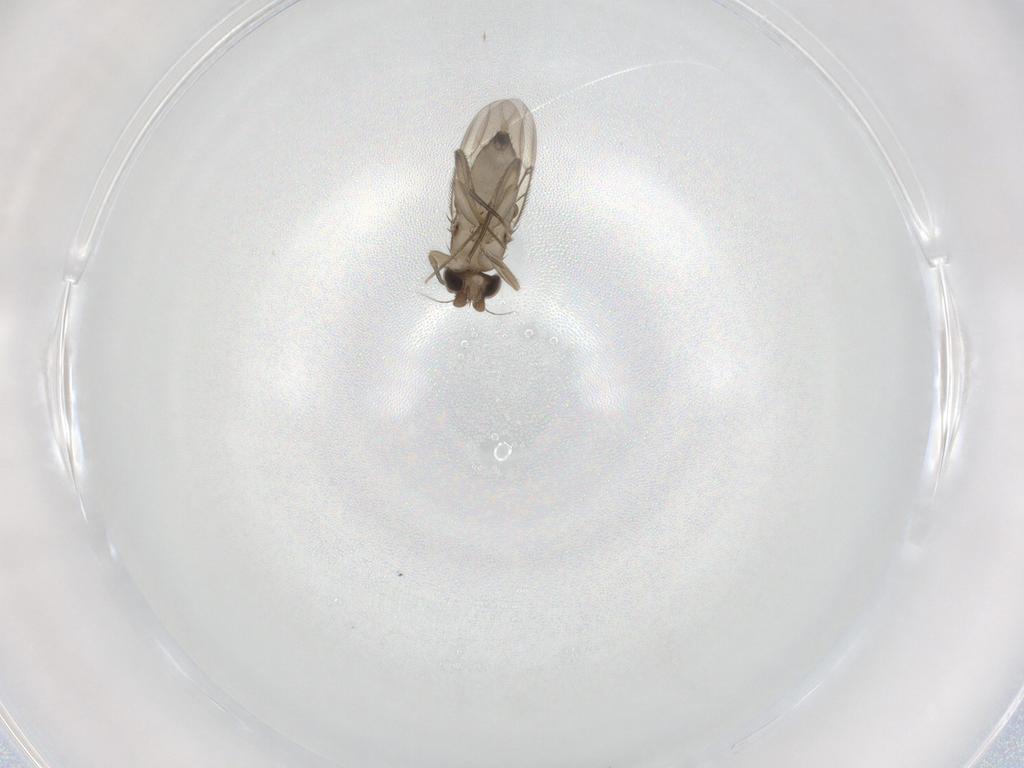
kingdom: Animalia
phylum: Arthropoda
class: Insecta
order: Diptera
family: Phoridae
